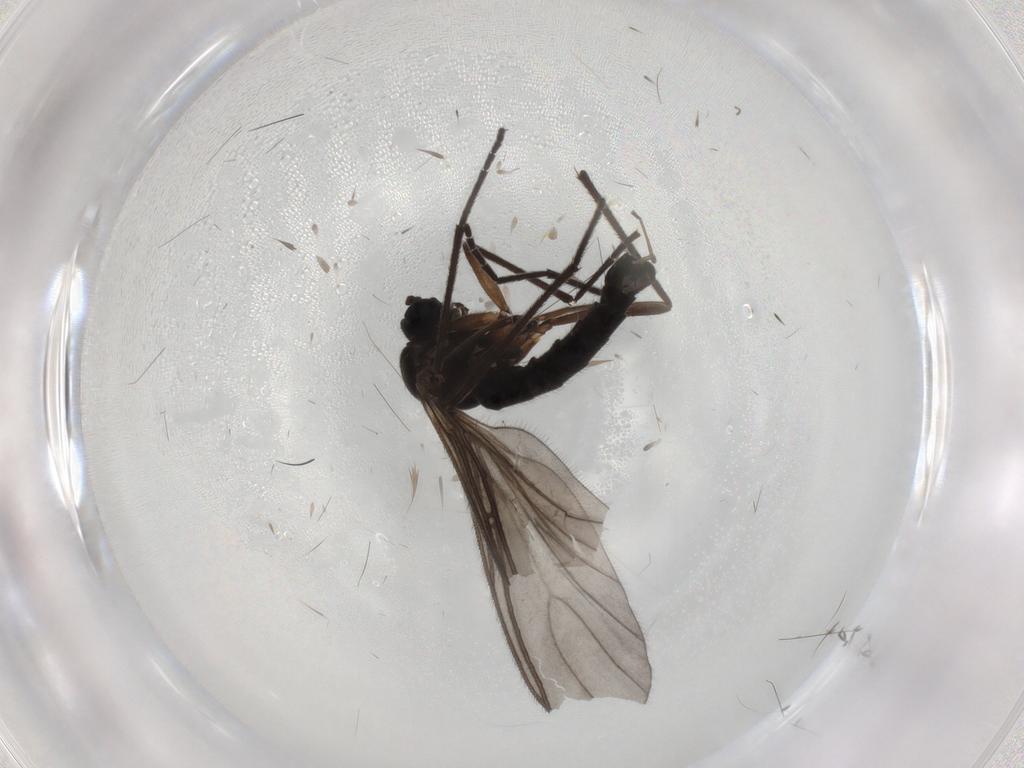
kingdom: Animalia
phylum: Arthropoda
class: Insecta
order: Diptera
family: Sciaridae
